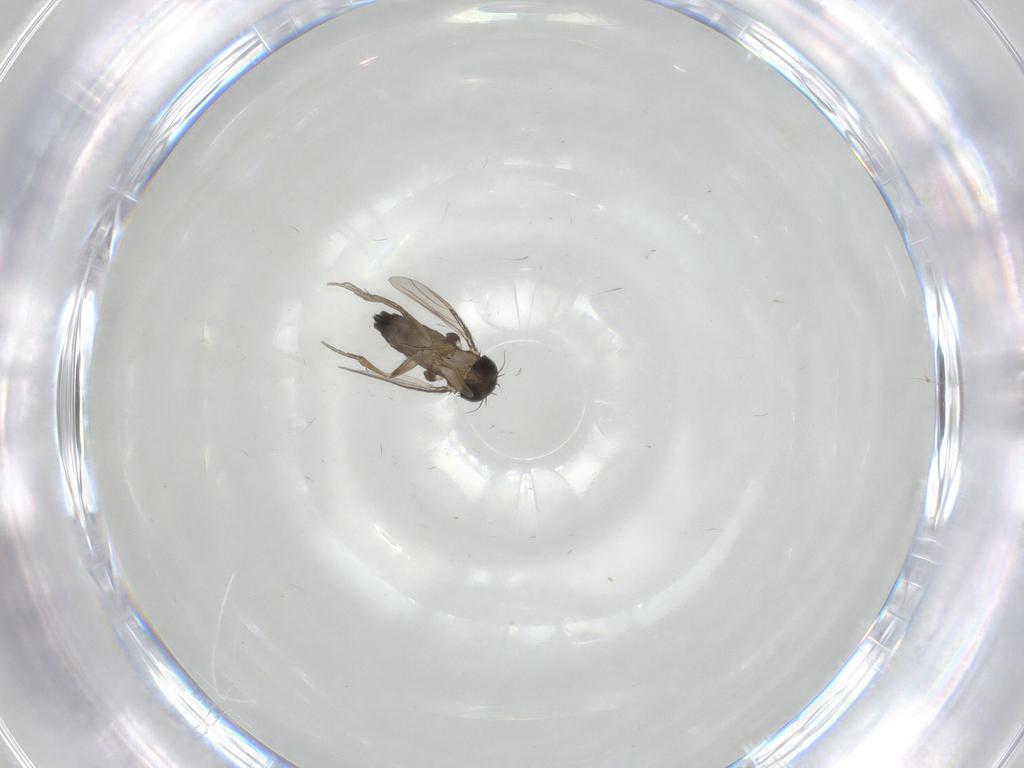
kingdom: Animalia
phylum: Arthropoda
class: Insecta
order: Diptera
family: Phoridae
